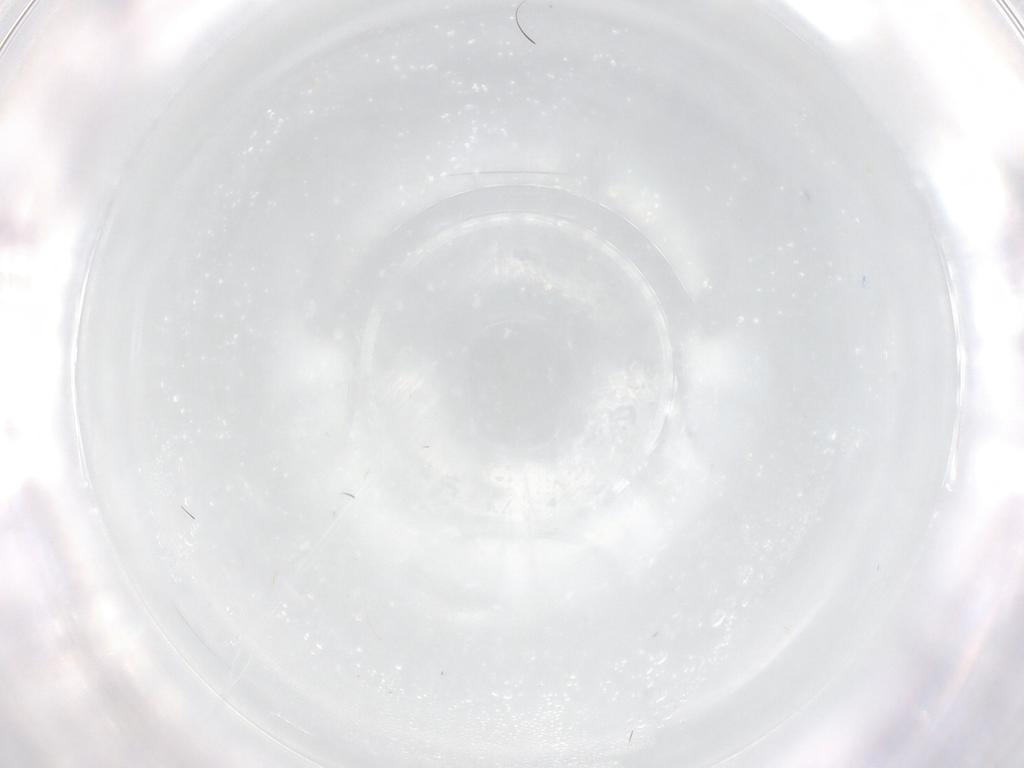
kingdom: Animalia
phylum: Arthropoda
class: Insecta
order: Diptera
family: Cecidomyiidae
